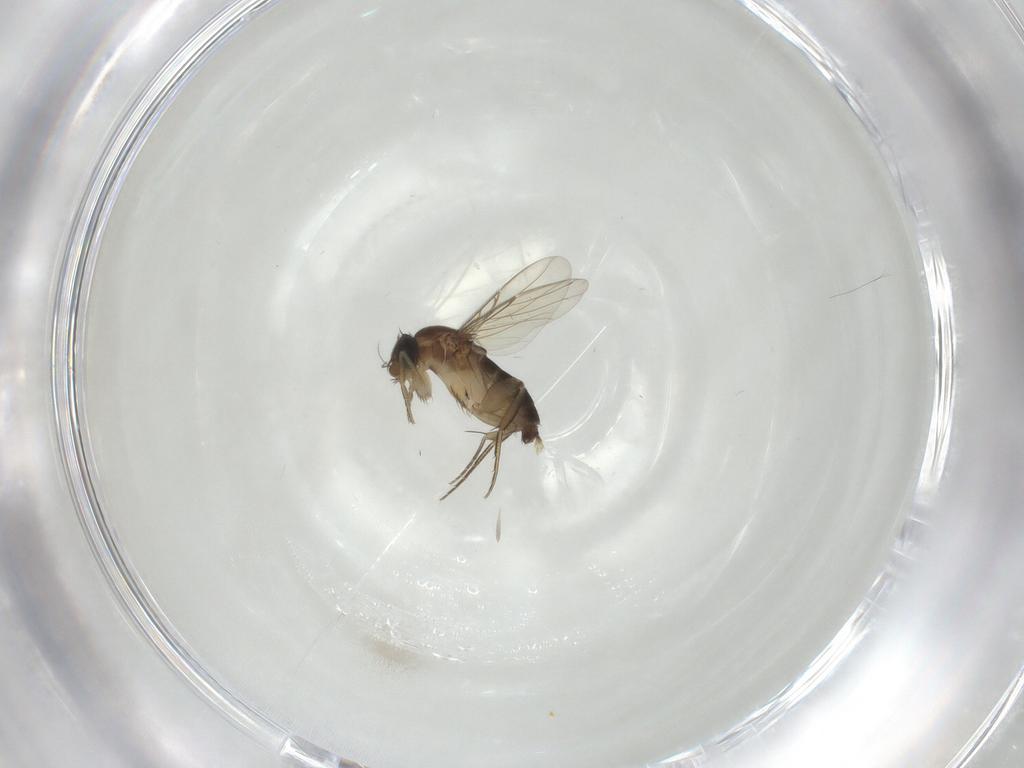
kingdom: Animalia
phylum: Arthropoda
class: Insecta
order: Diptera
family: Phoridae
